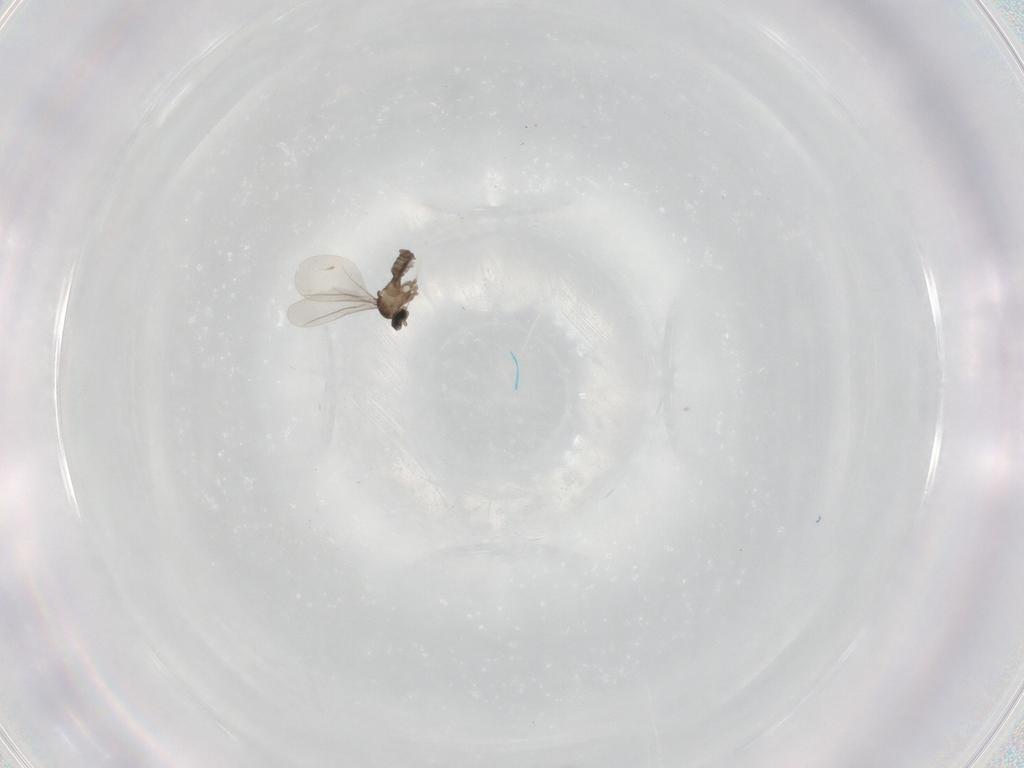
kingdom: Animalia
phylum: Arthropoda
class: Insecta
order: Diptera
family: Cecidomyiidae
